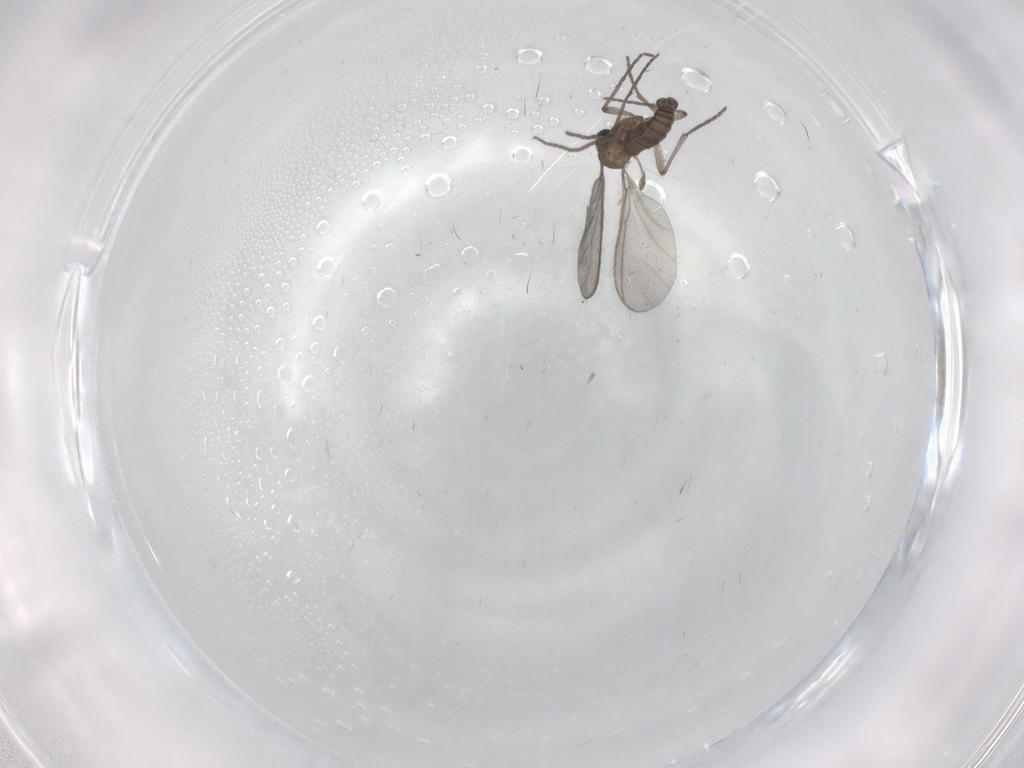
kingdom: Animalia
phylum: Arthropoda
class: Insecta
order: Diptera
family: Sciaridae
